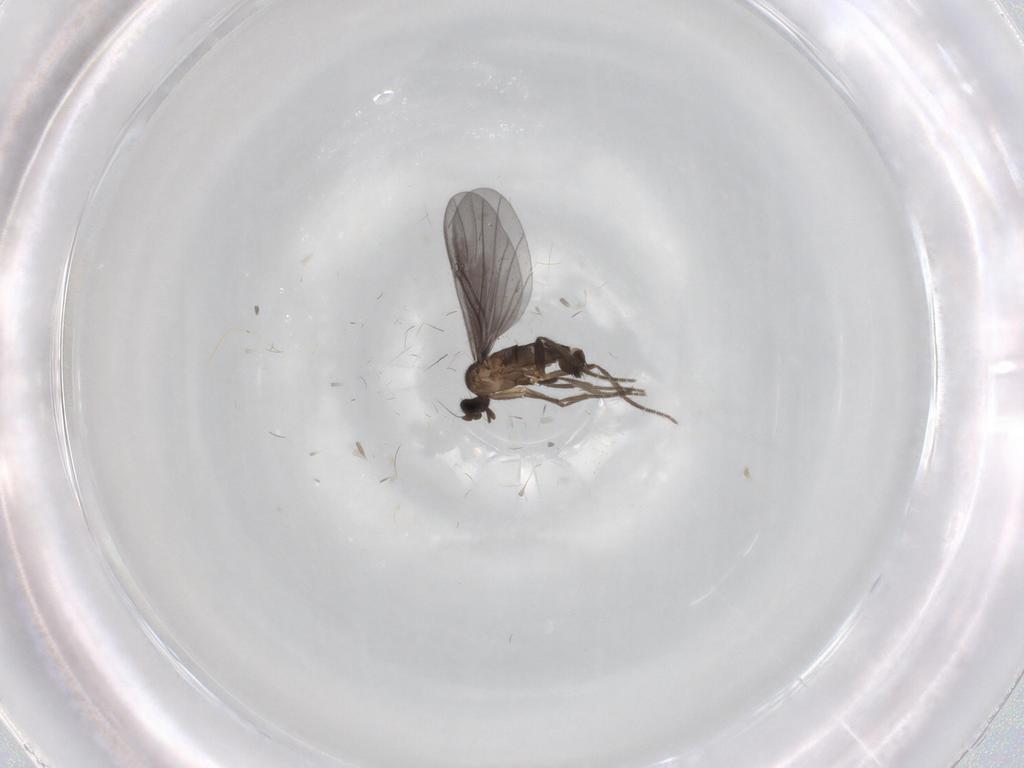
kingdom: Animalia
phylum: Arthropoda
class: Insecta
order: Diptera
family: Phoridae
